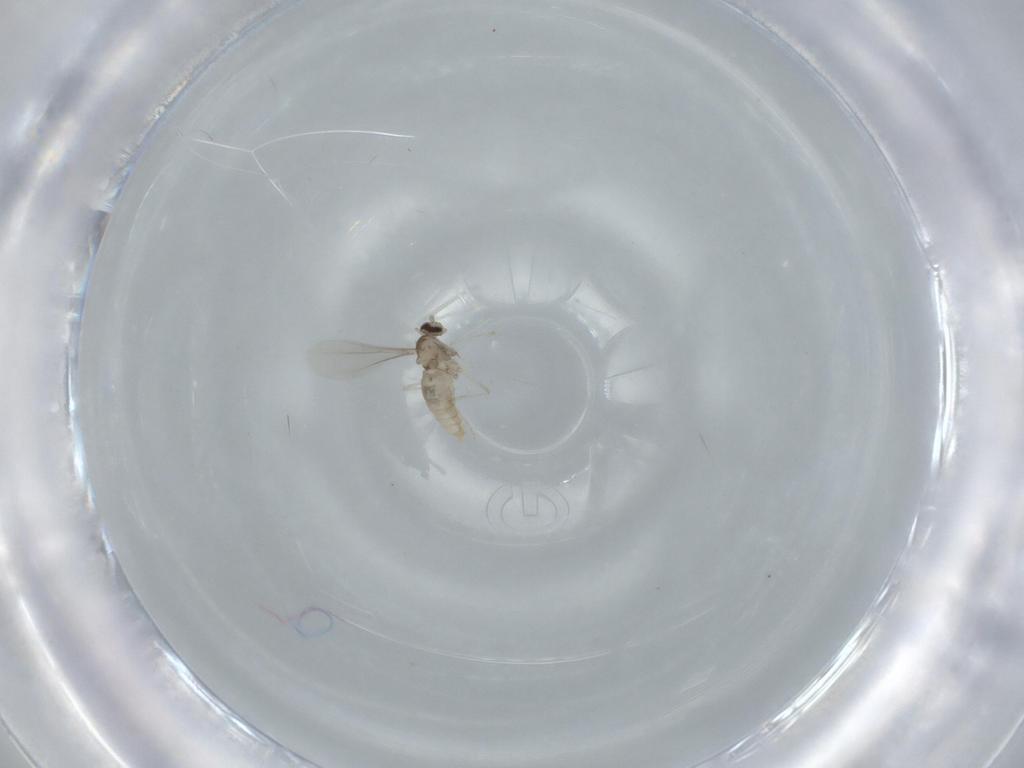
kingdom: Animalia
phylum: Arthropoda
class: Insecta
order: Diptera
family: Cecidomyiidae
